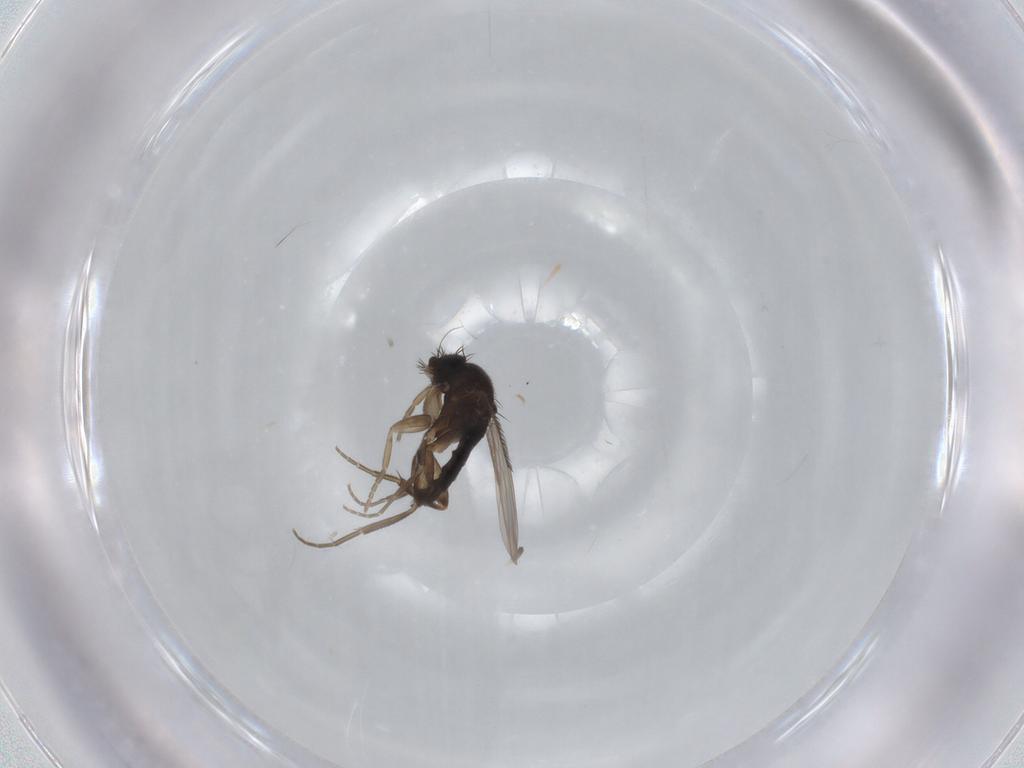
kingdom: Animalia
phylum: Arthropoda
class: Insecta
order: Diptera
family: Phoridae
